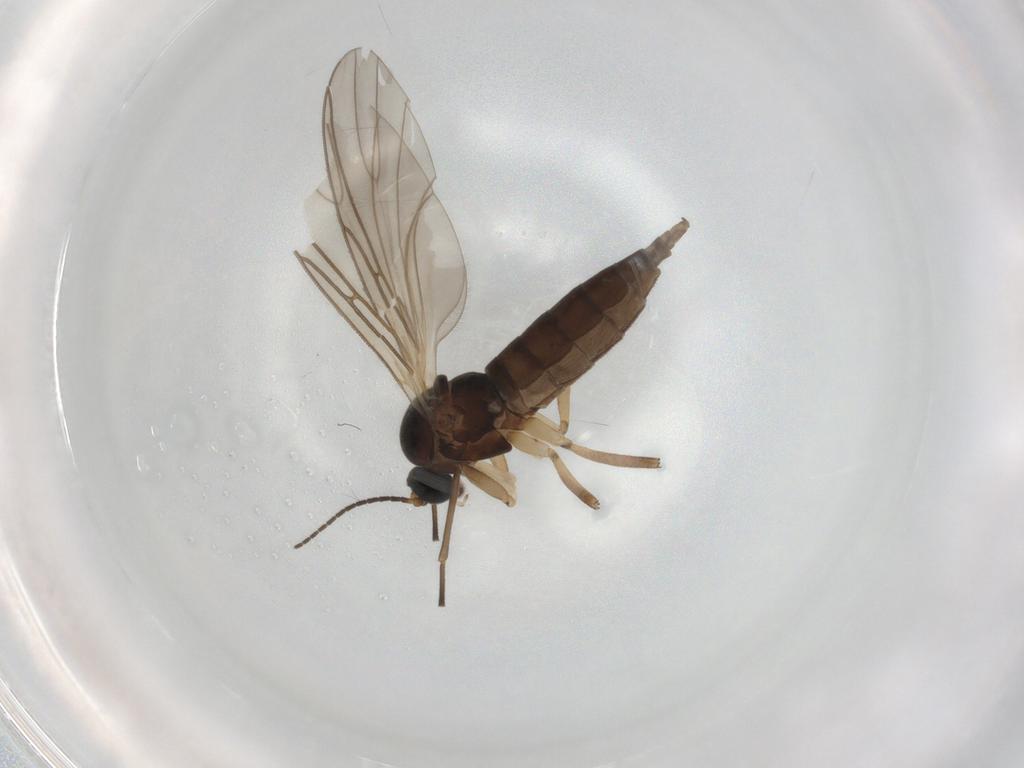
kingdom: Animalia
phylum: Arthropoda
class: Insecta
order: Diptera
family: Sciaridae
